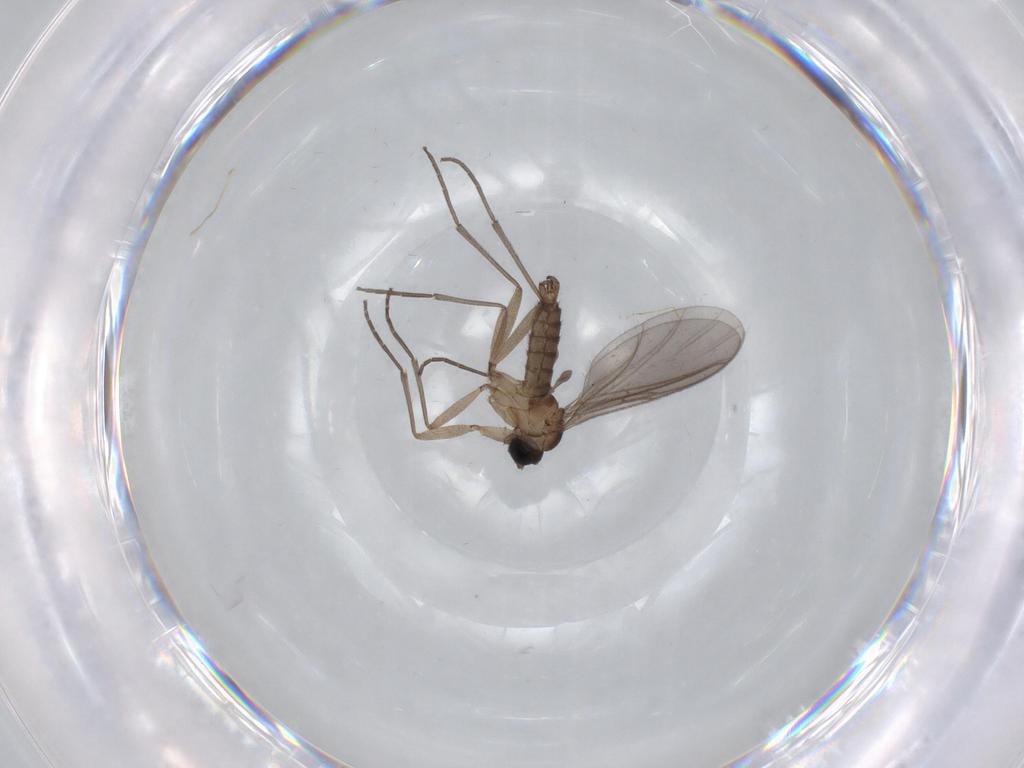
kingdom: Animalia
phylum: Arthropoda
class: Insecta
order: Diptera
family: Sciaridae
